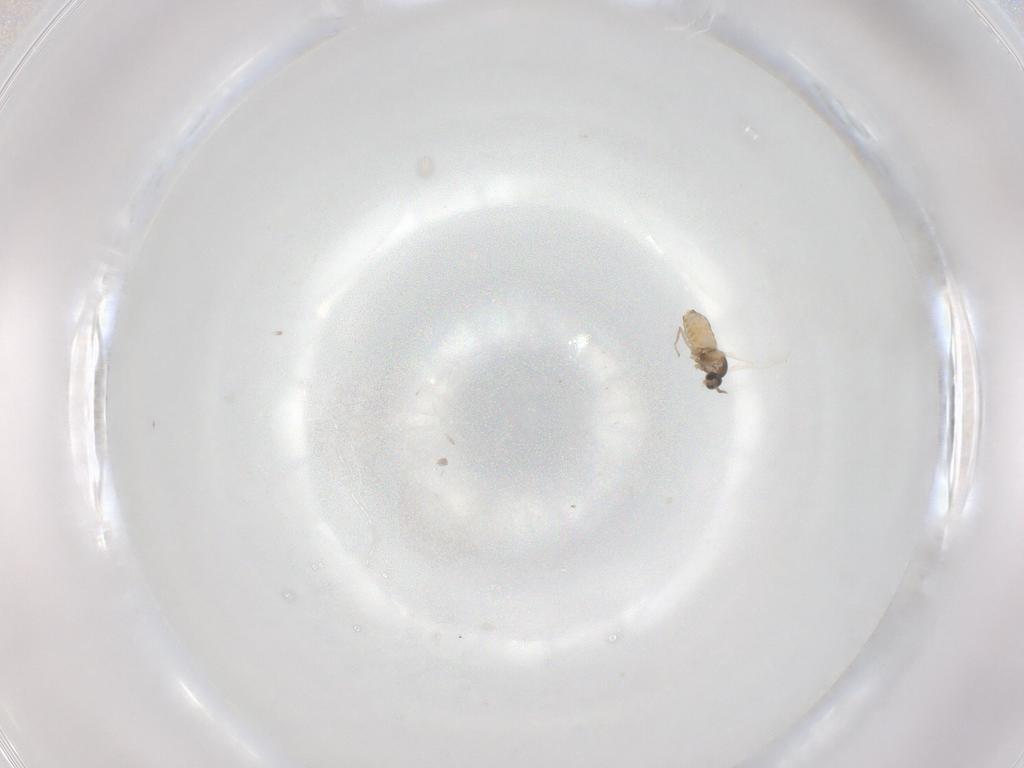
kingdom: Animalia
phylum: Arthropoda
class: Insecta
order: Diptera
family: Cecidomyiidae
